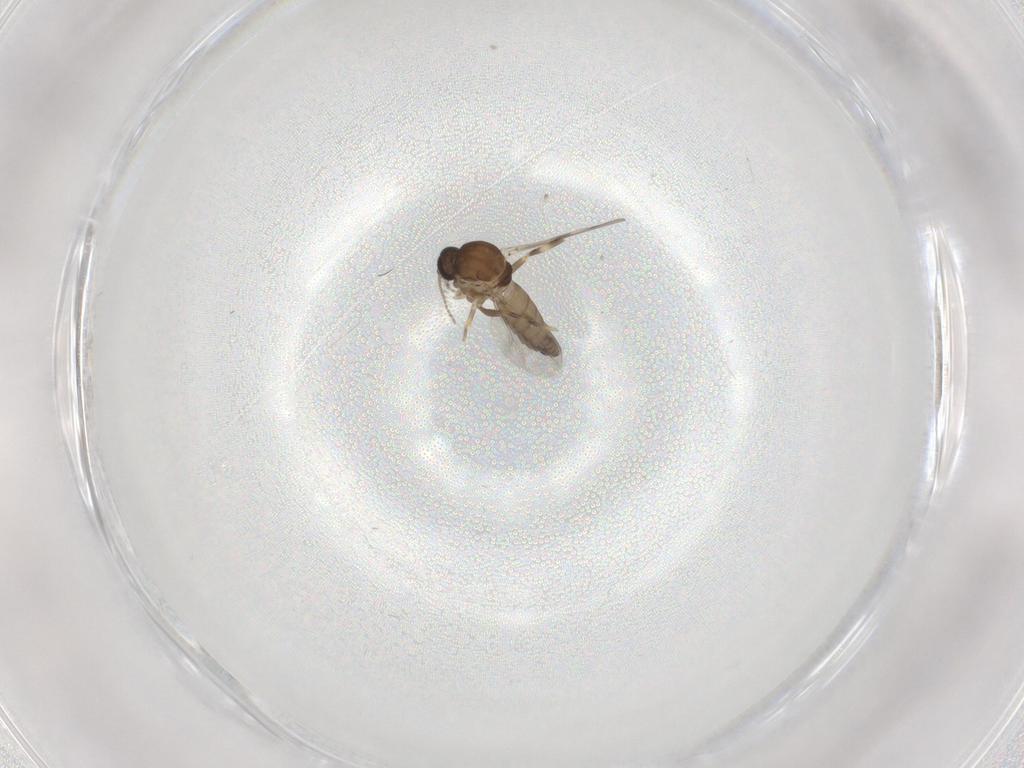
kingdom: Animalia
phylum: Arthropoda
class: Insecta
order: Diptera
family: Ceratopogonidae
